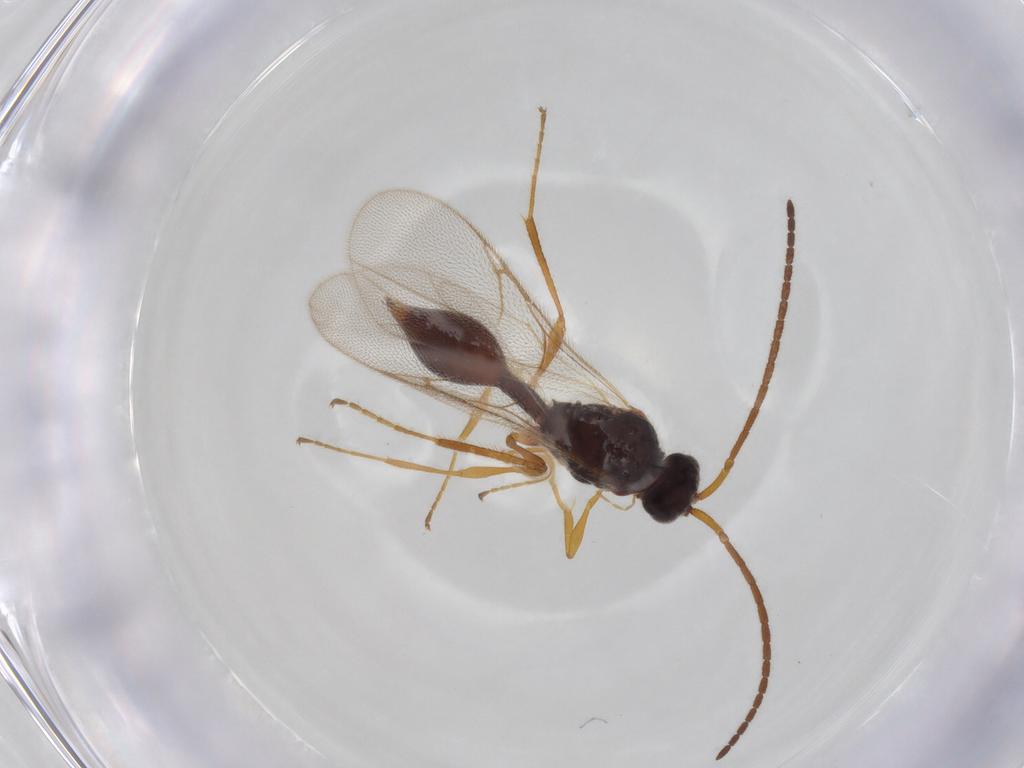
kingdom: Animalia
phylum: Arthropoda
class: Insecta
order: Hymenoptera
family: Diapriidae
